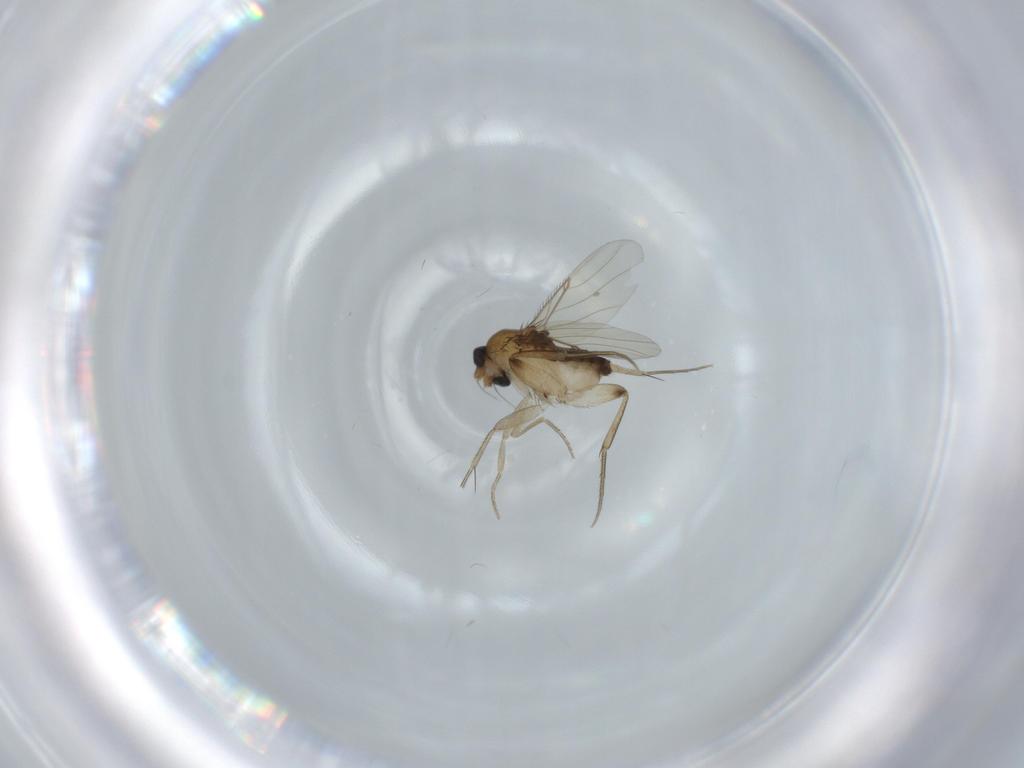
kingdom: Animalia
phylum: Arthropoda
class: Insecta
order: Diptera
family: Phoridae
